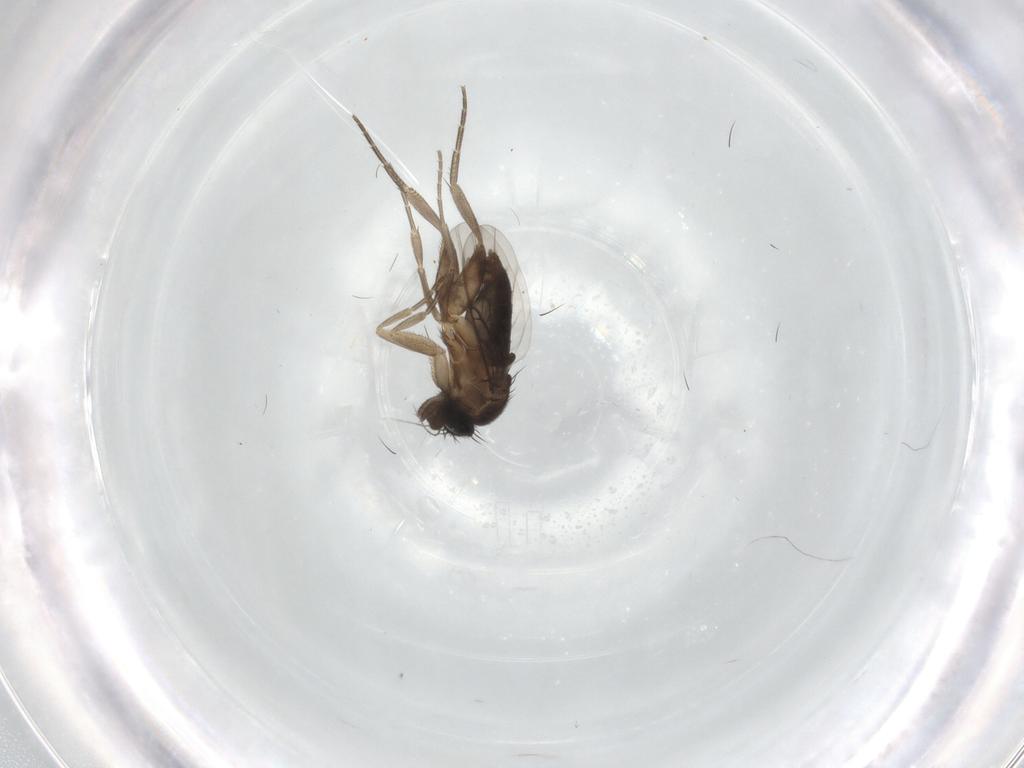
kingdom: Animalia
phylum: Arthropoda
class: Insecta
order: Diptera
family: Phoridae
